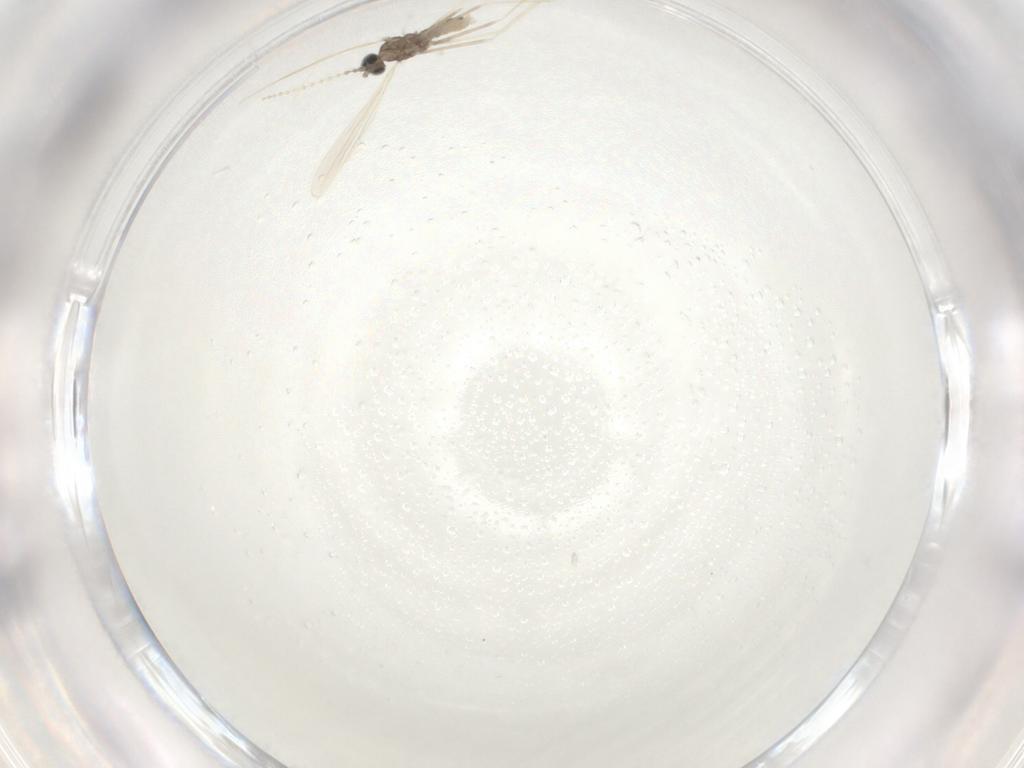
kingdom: Animalia
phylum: Arthropoda
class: Insecta
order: Diptera
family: Cecidomyiidae
